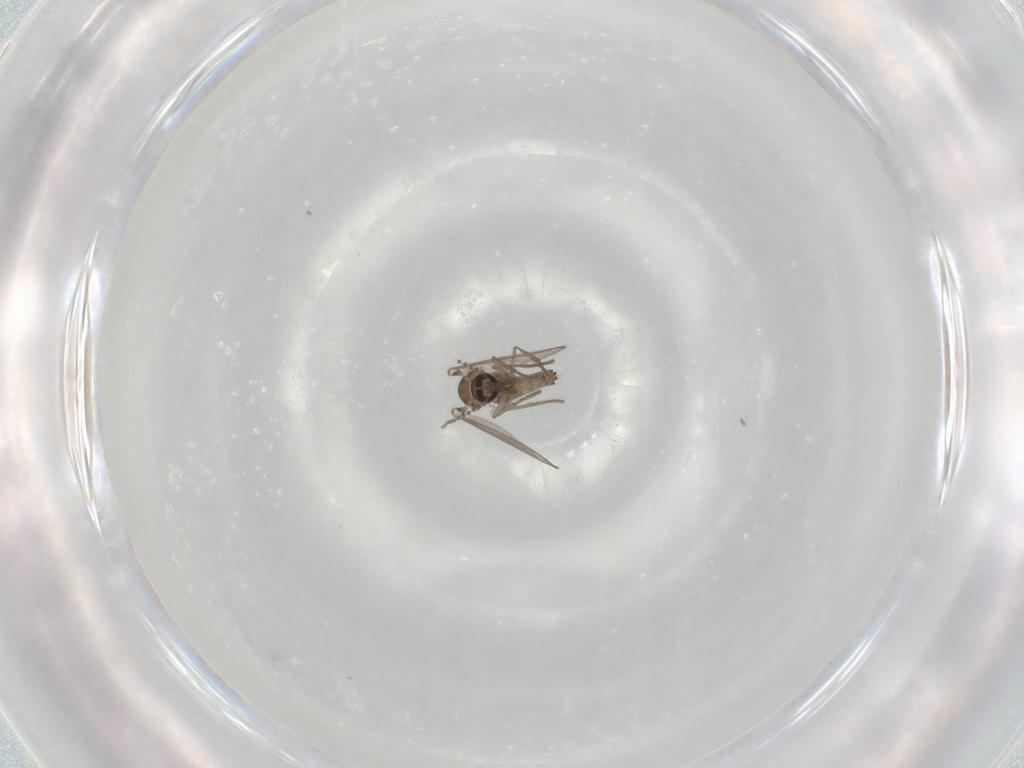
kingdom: Animalia
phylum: Arthropoda
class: Insecta
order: Diptera
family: Psychodidae
